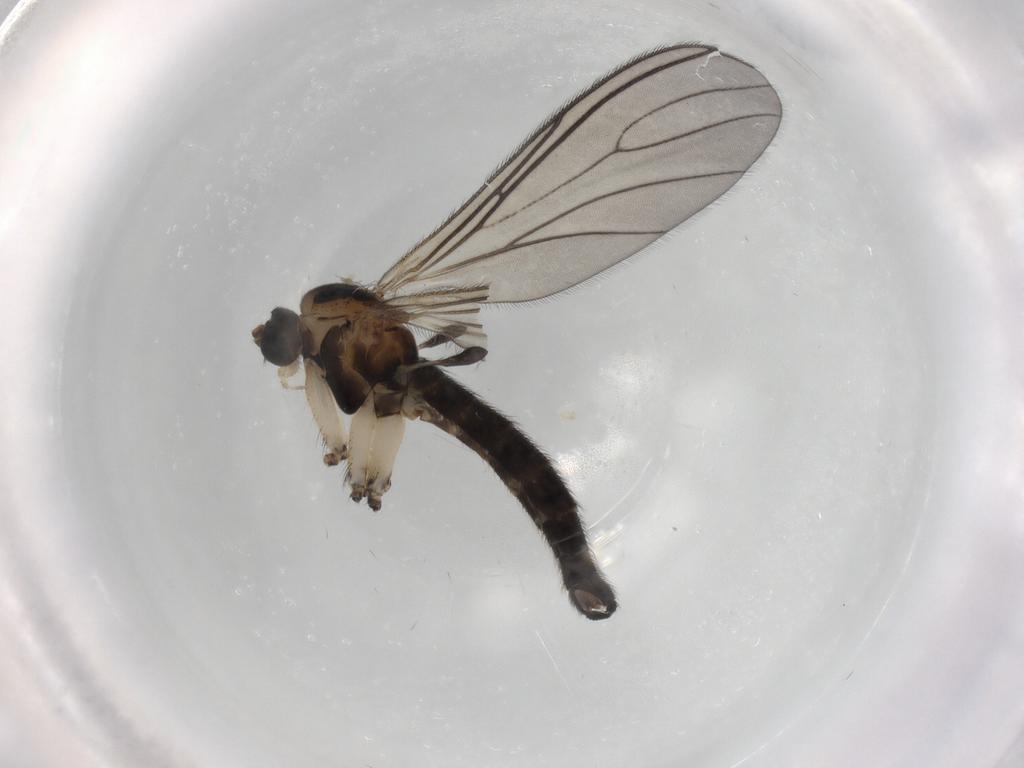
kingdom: Animalia
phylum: Arthropoda
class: Insecta
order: Diptera
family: Sciaridae
